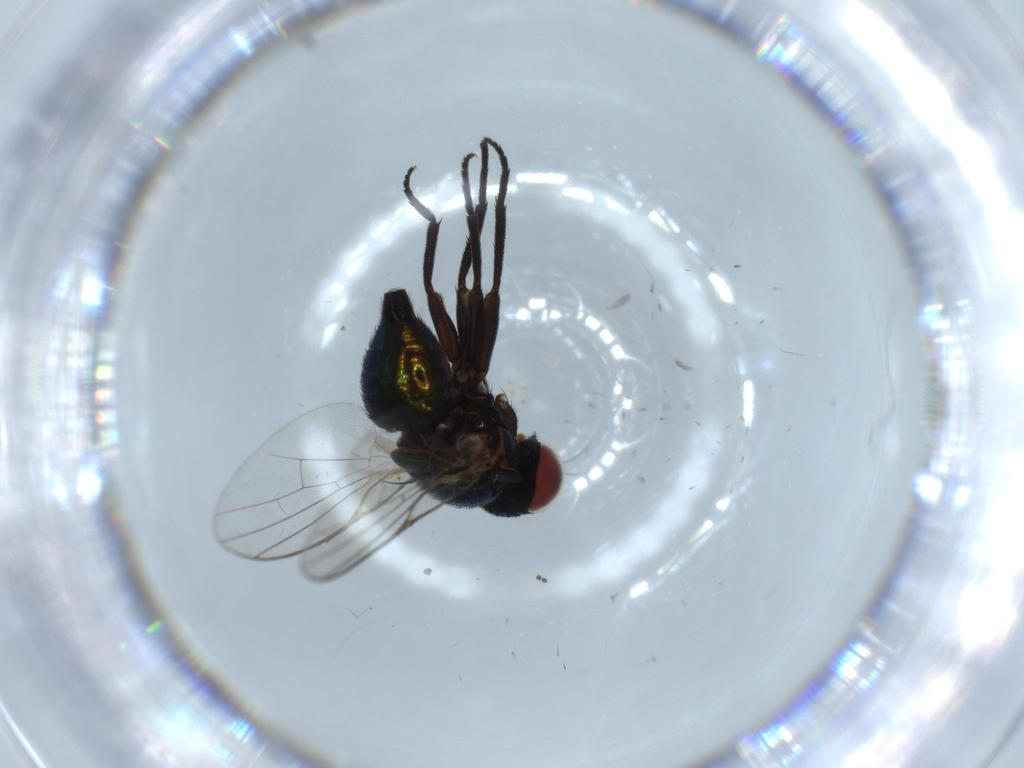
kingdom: Animalia
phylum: Arthropoda
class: Insecta
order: Diptera
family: Agromyzidae
